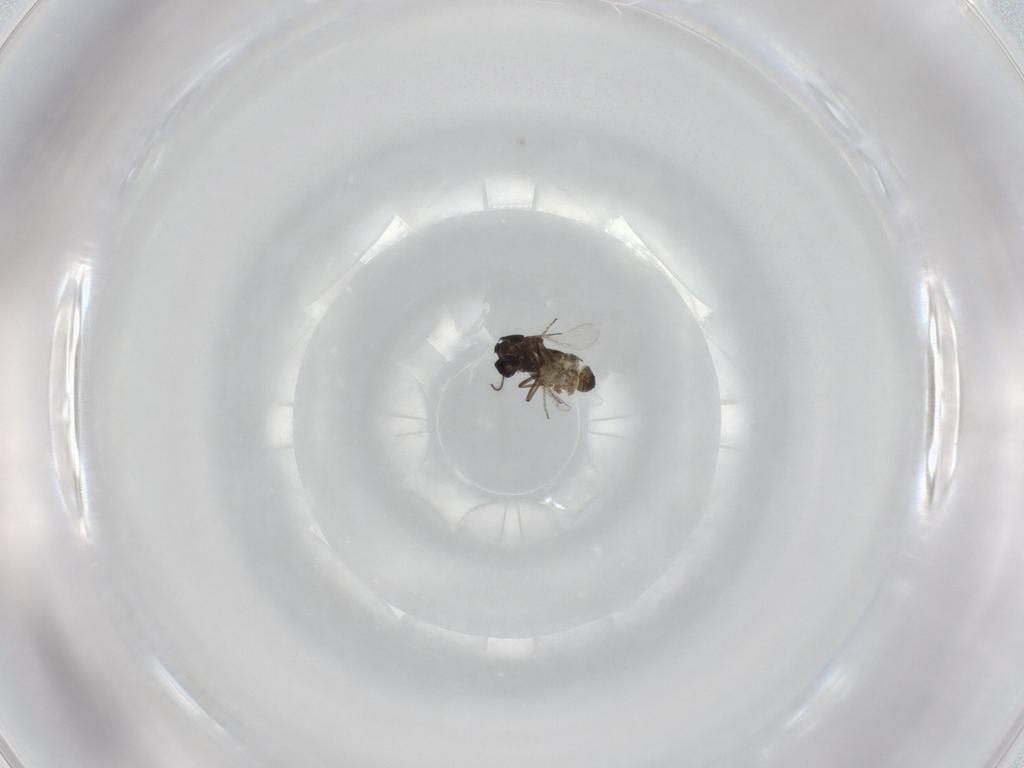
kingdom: Animalia
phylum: Arthropoda
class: Insecta
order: Diptera
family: Ceratopogonidae
